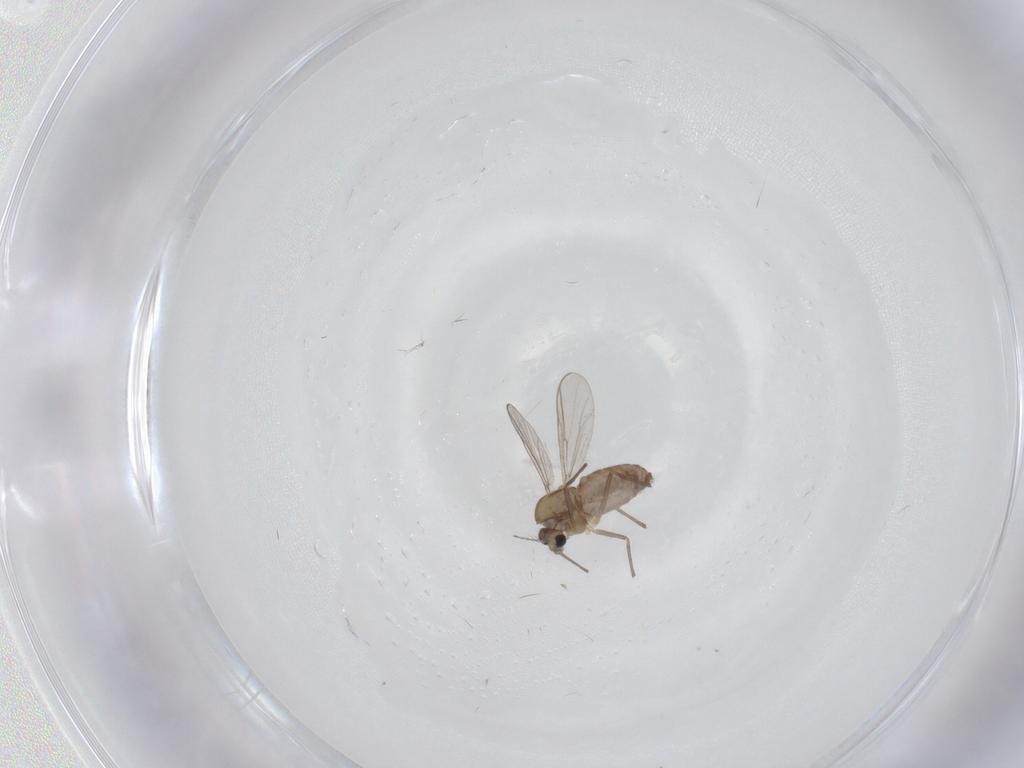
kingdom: Animalia
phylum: Arthropoda
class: Insecta
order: Diptera
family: Chironomidae
